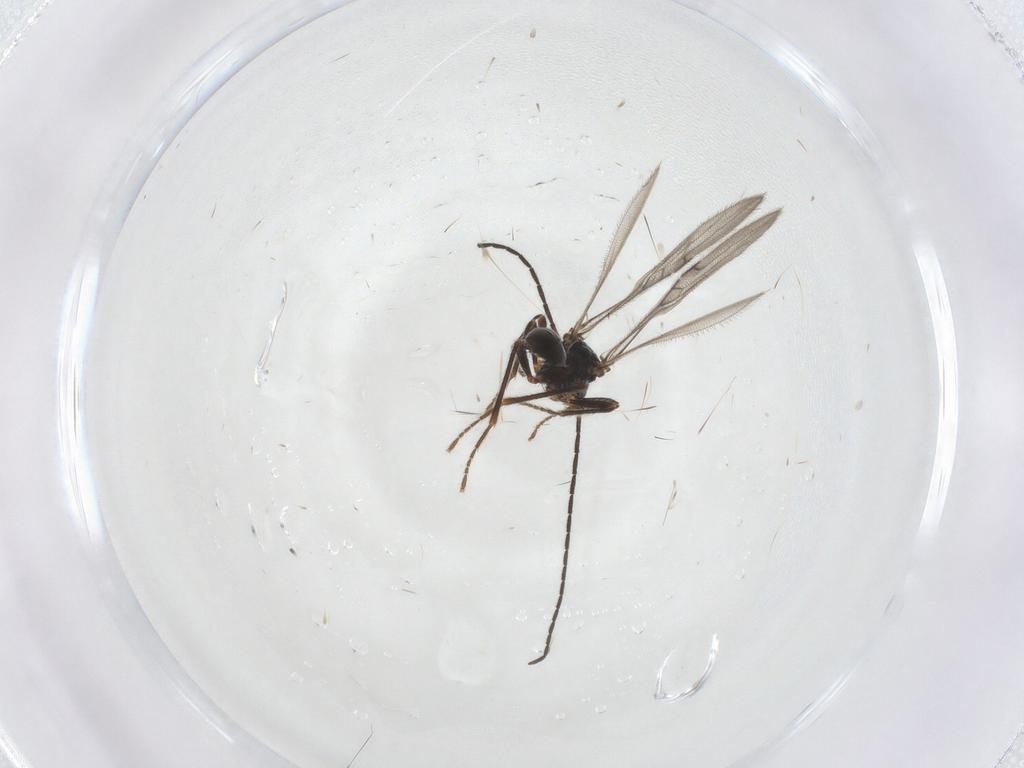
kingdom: Animalia
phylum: Arthropoda
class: Insecta
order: Hymenoptera
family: Braconidae
